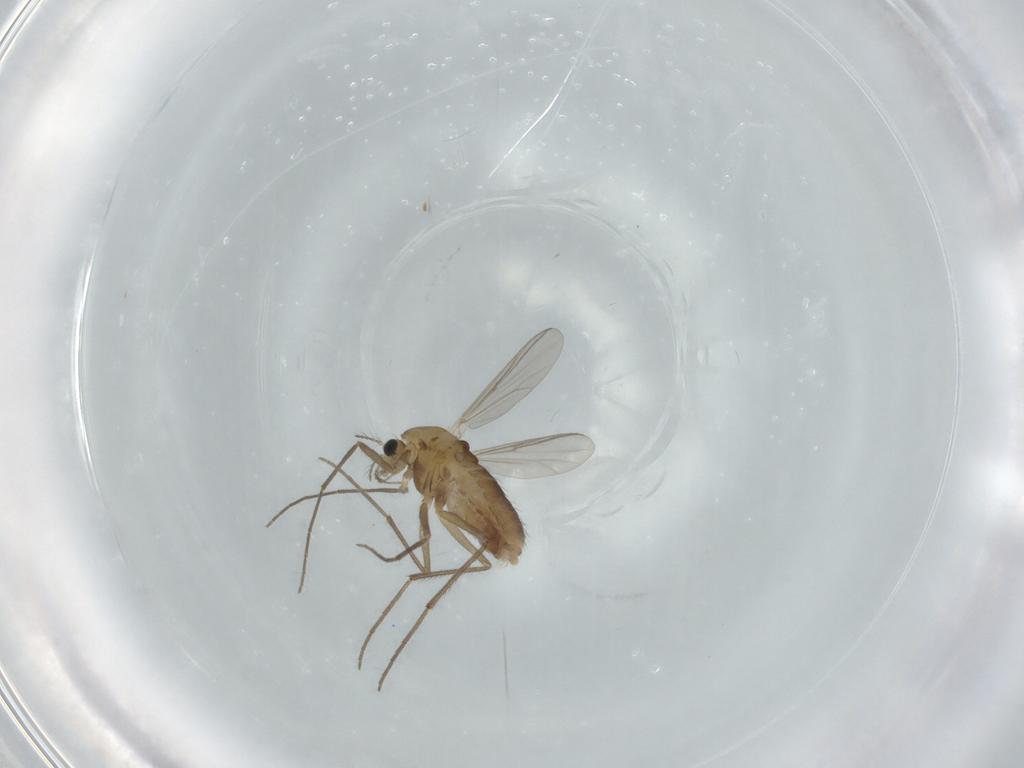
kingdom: Animalia
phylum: Arthropoda
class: Insecta
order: Diptera
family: Chironomidae
